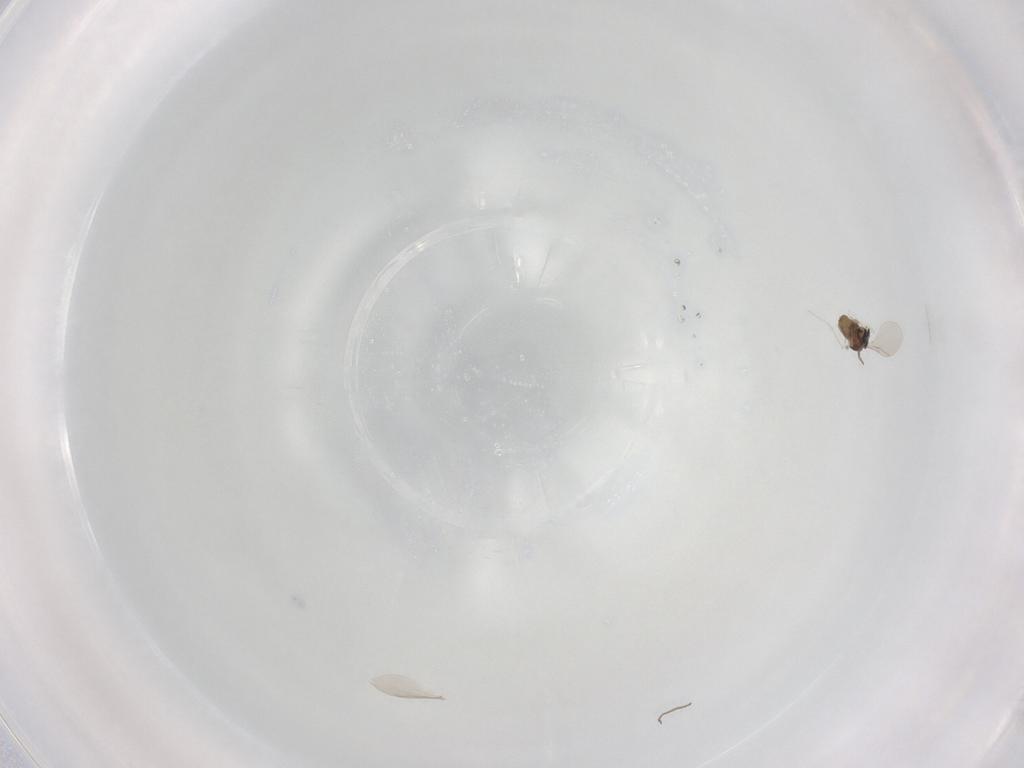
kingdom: Animalia
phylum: Arthropoda
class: Insecta
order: Diptera
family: Cecidomyiidae
